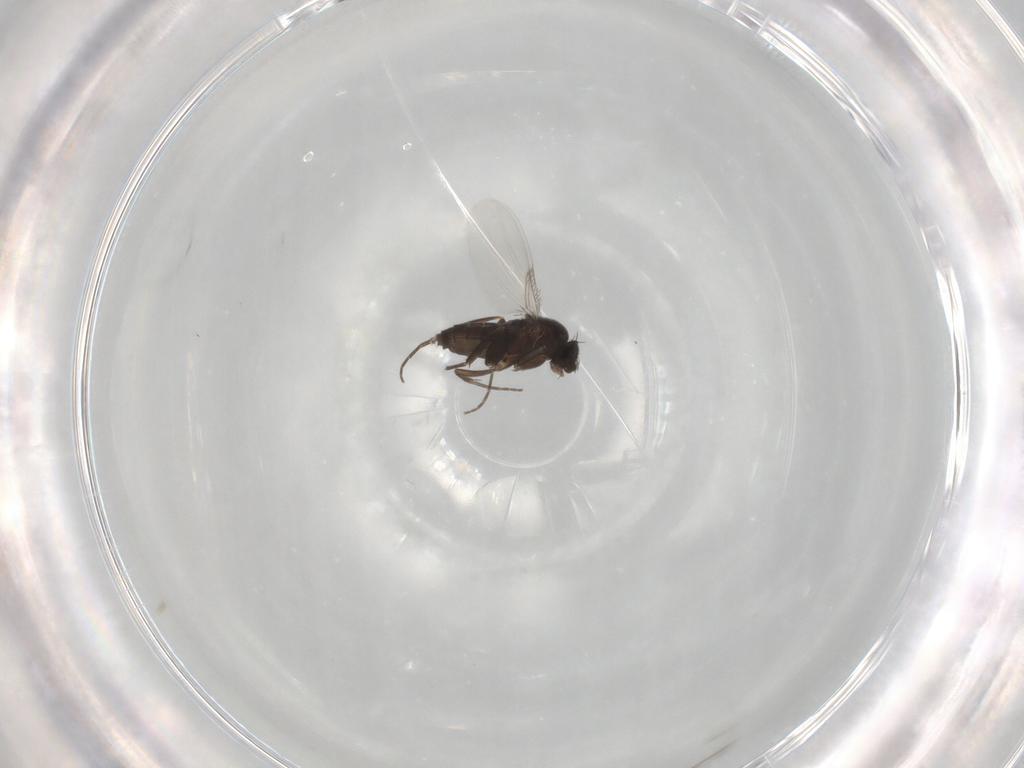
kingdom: Animalia
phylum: Arthropoda
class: Insecta
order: Diptera
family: Phoridae
